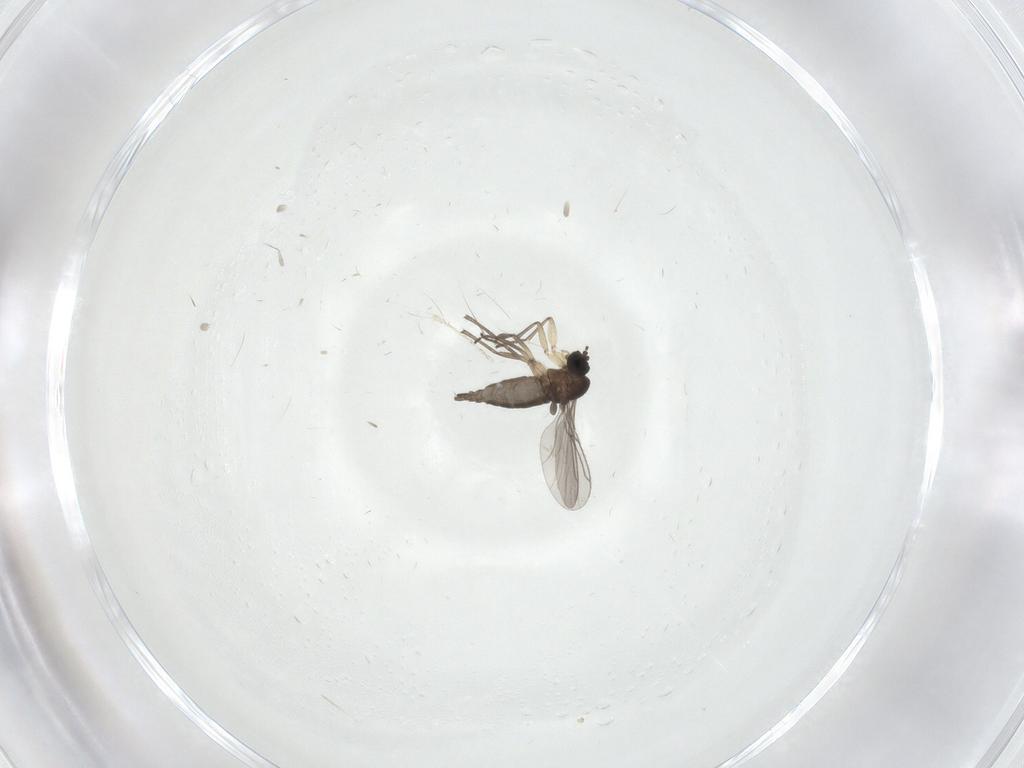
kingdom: Animalia
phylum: Arthropoda
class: Insecta
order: Diptera
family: Sciaridae
